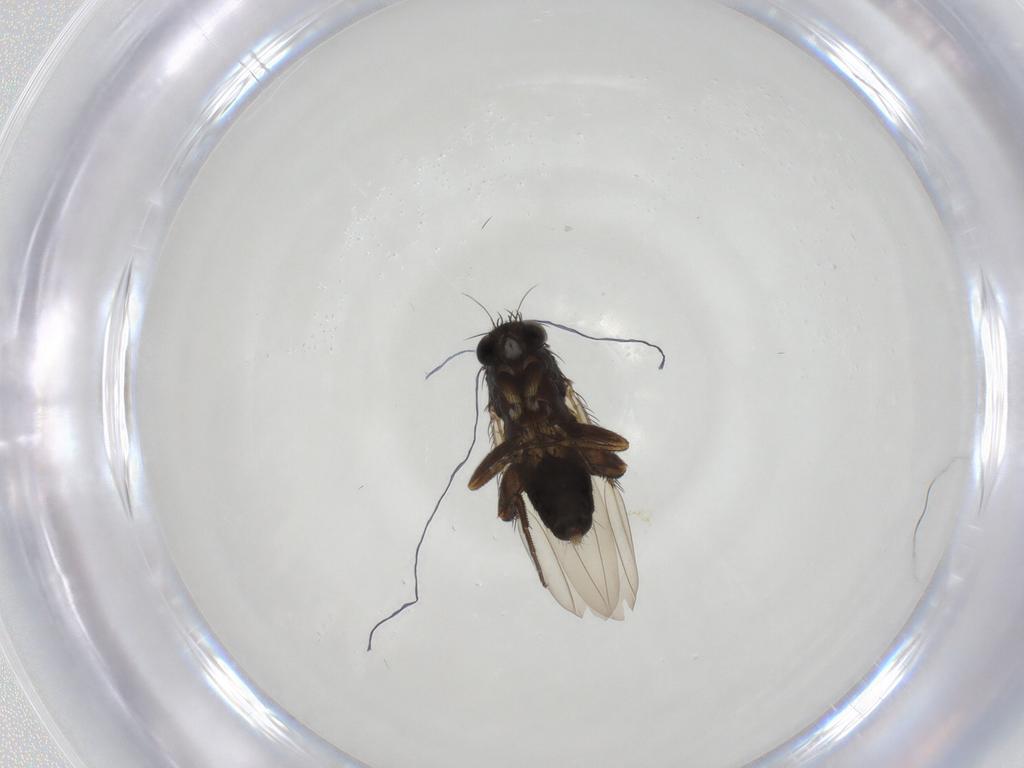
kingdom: Animalia
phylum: Arthropoda
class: Insecta
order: Diptera
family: Phoridae
